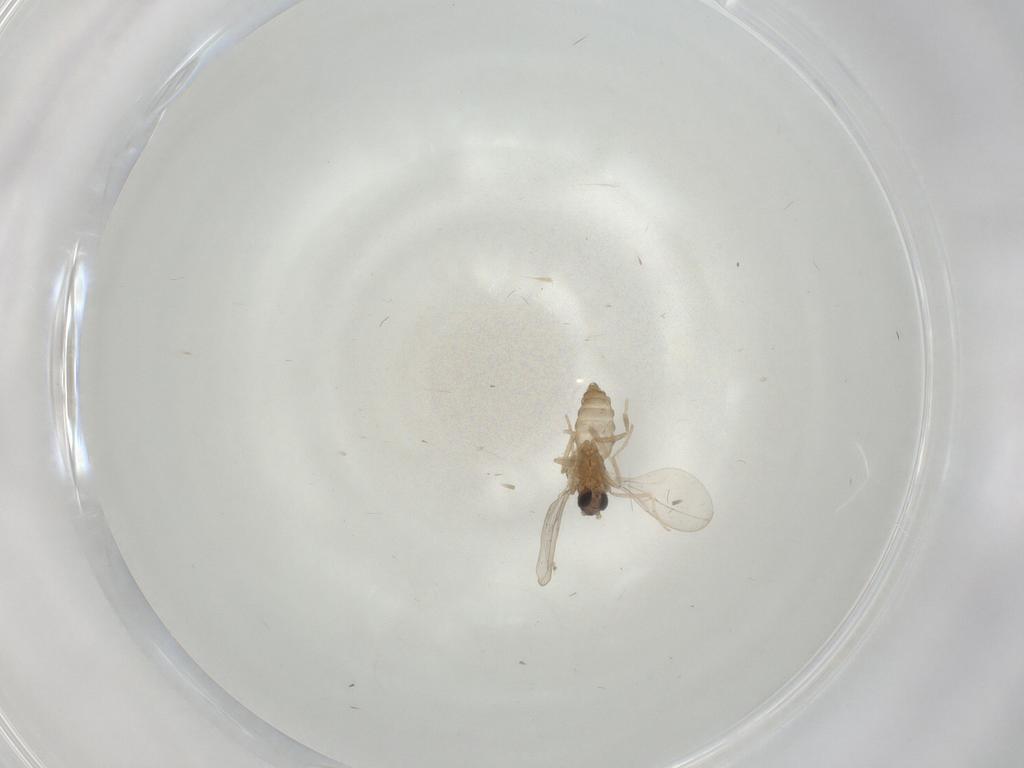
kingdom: Animalia
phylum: Arthropoda
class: Insecta
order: Diptera
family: Cecidomyiidae
